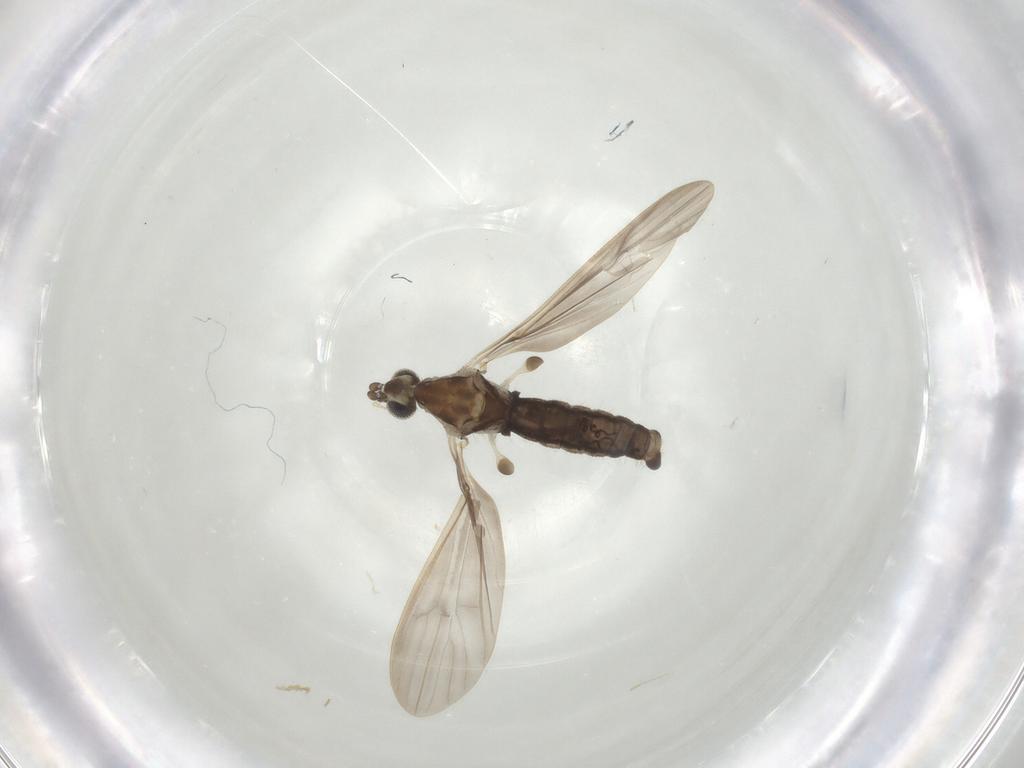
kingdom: Animalia
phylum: Arthropoda
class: Insecta
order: Diptera
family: Limoniidae
